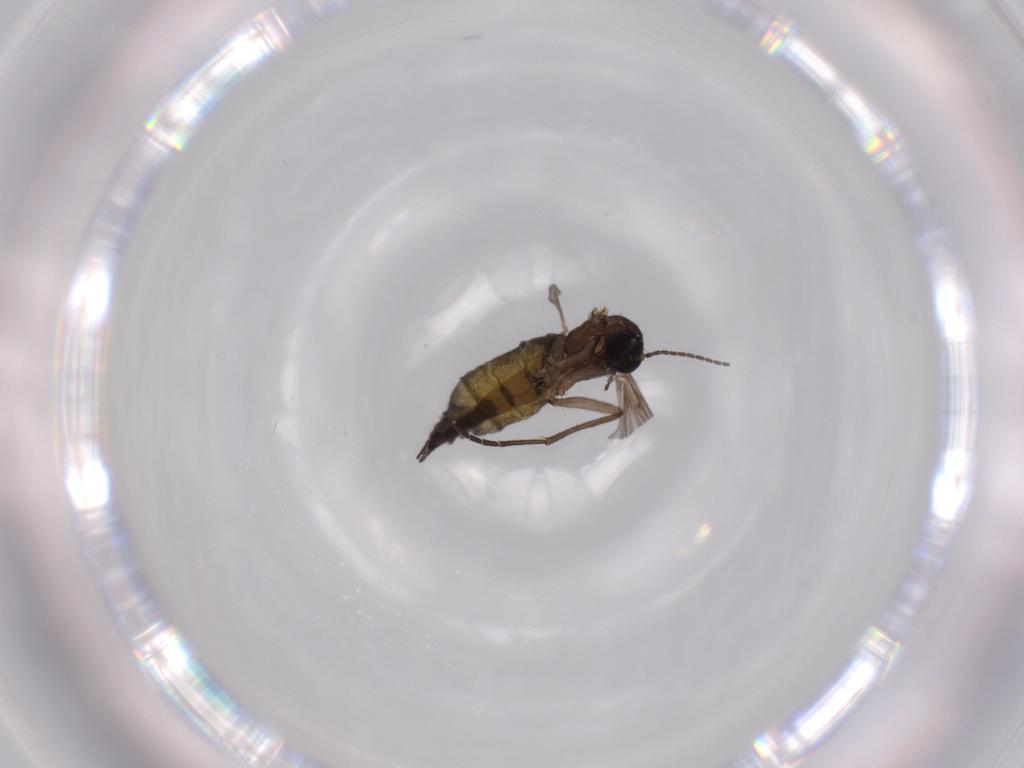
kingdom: Animalia
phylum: Arthropoda
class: Insecta
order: Diptera
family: Sciaridae
